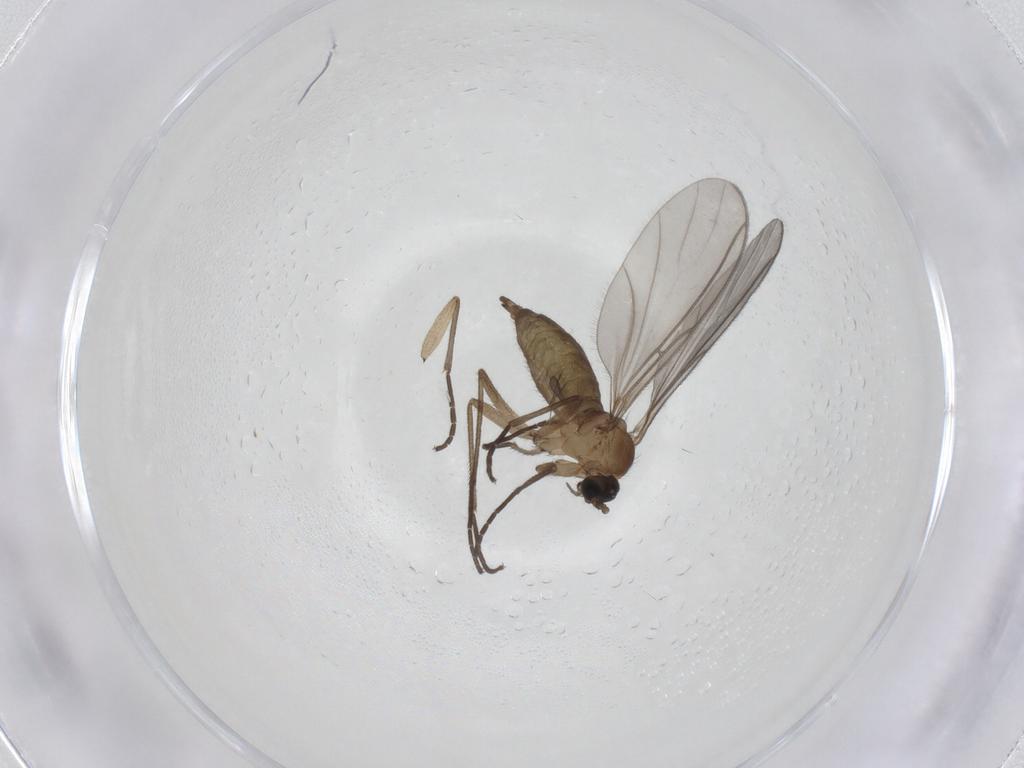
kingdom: Animalia
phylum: Arthropoda
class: Insecta
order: Diptera
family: Sciaridae
